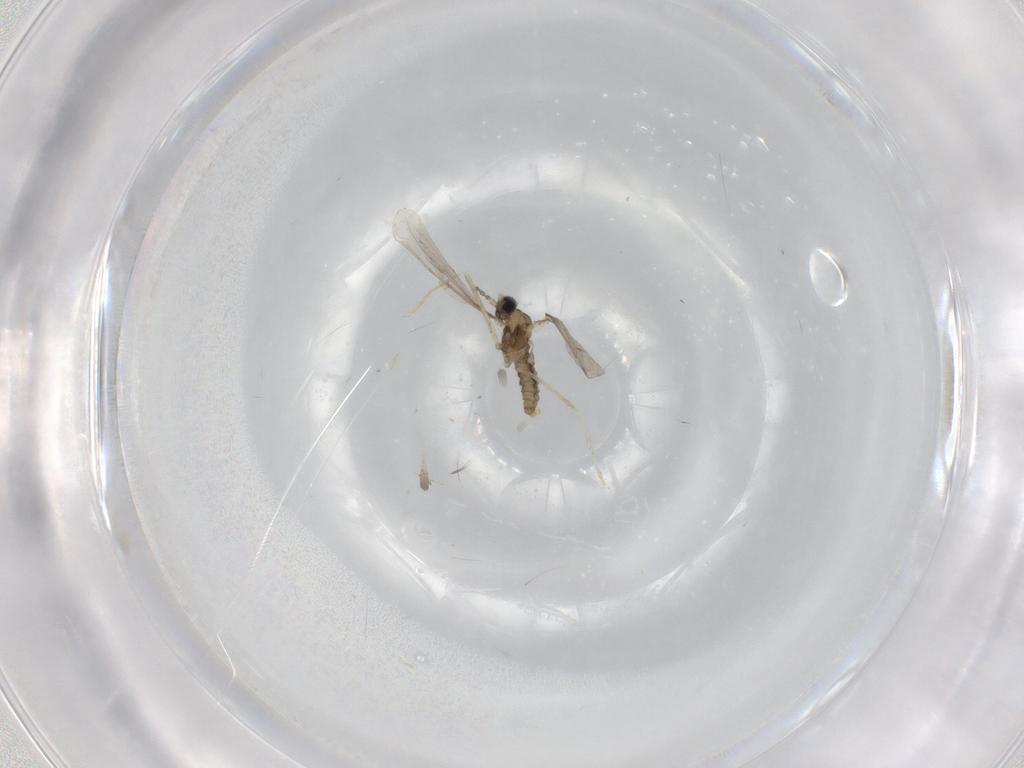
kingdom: Animalia
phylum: Arthropoda
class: Insecta
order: Diptera
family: Cecidomyiidae
